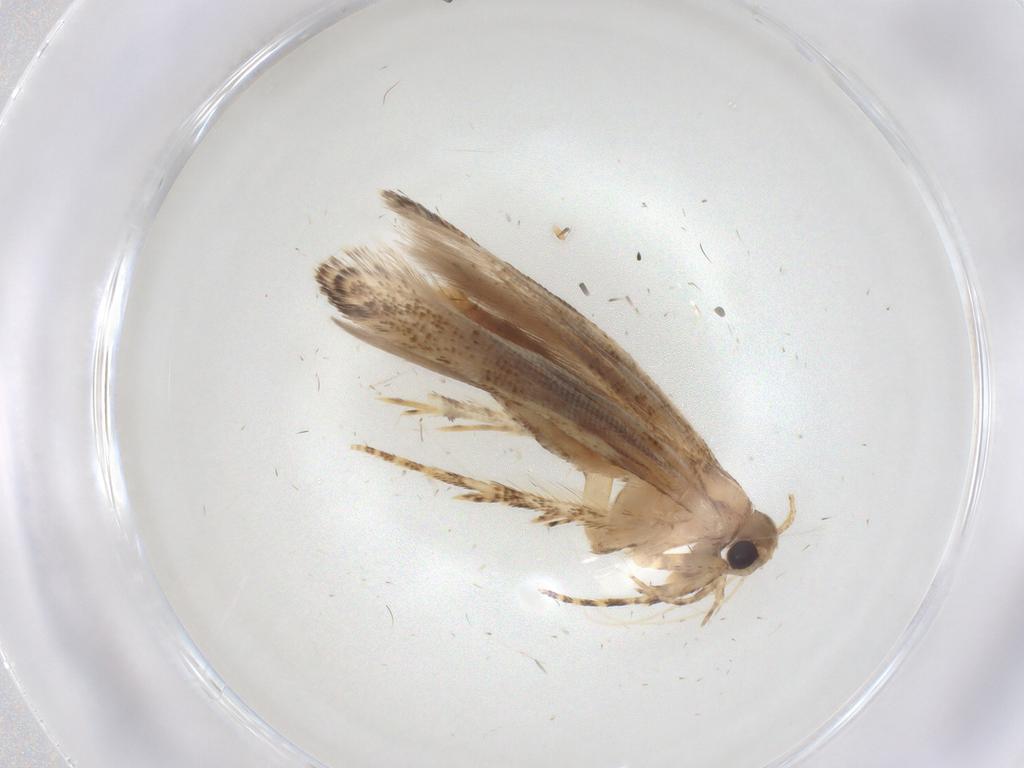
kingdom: Animalia
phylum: Arthropoda
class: Insecta
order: Lepidoptera
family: Gelechiidae
